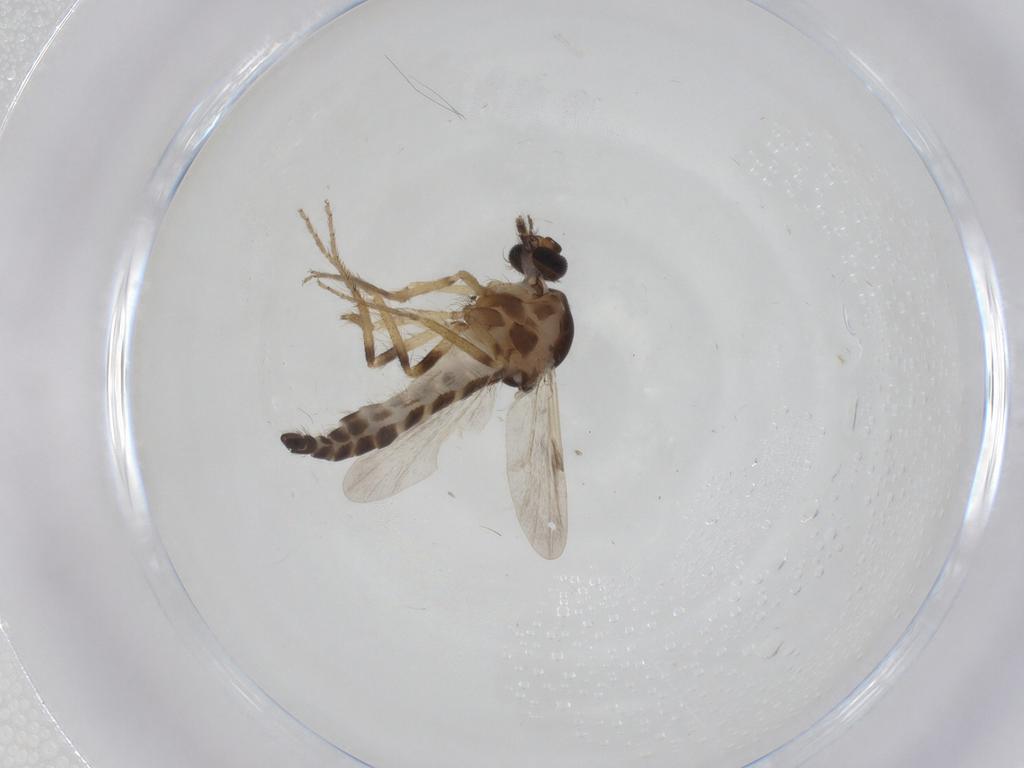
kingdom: Animalia
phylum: Arthropoda
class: Insecta
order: Diptera
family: Ceratopogonidae
